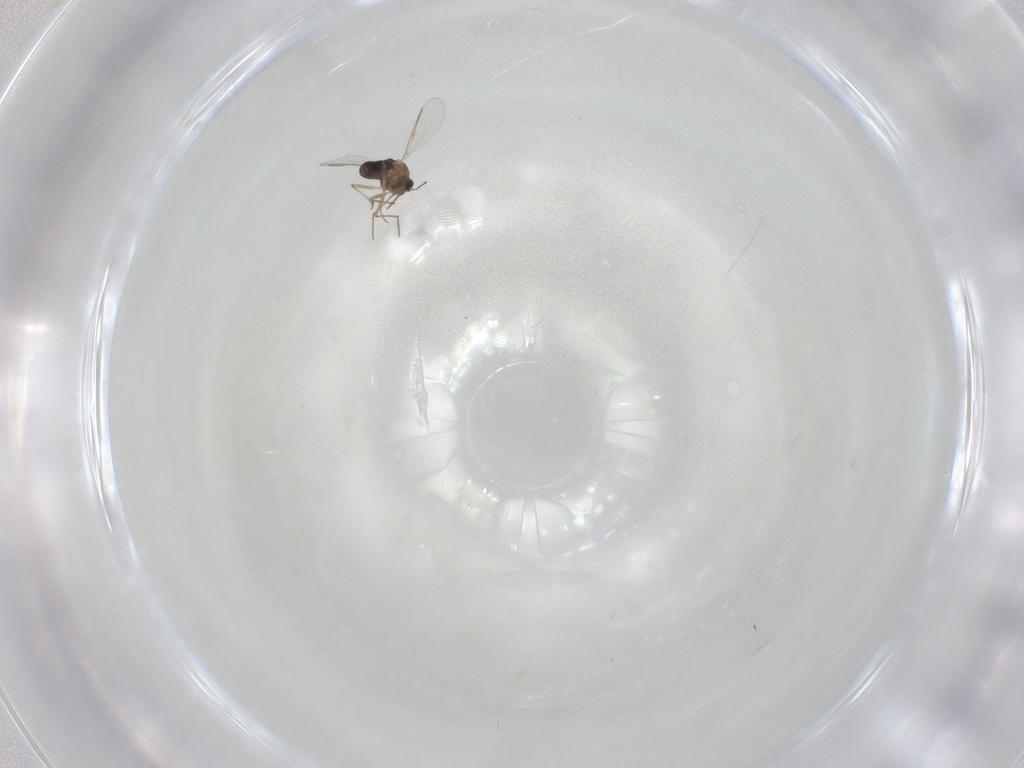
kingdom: Animalia
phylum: Arthropoda
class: Insecta
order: Diptera
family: Chironomidae
